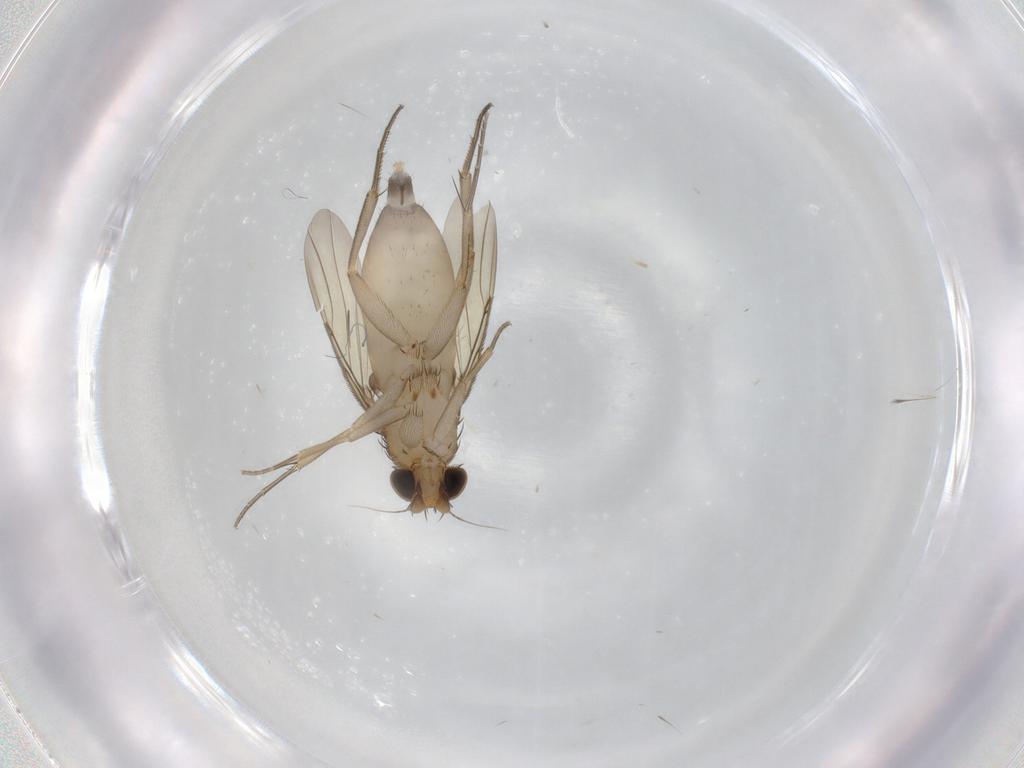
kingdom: Animalia
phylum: Arthropoda
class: Insecta
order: Diptera
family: Phoridae
